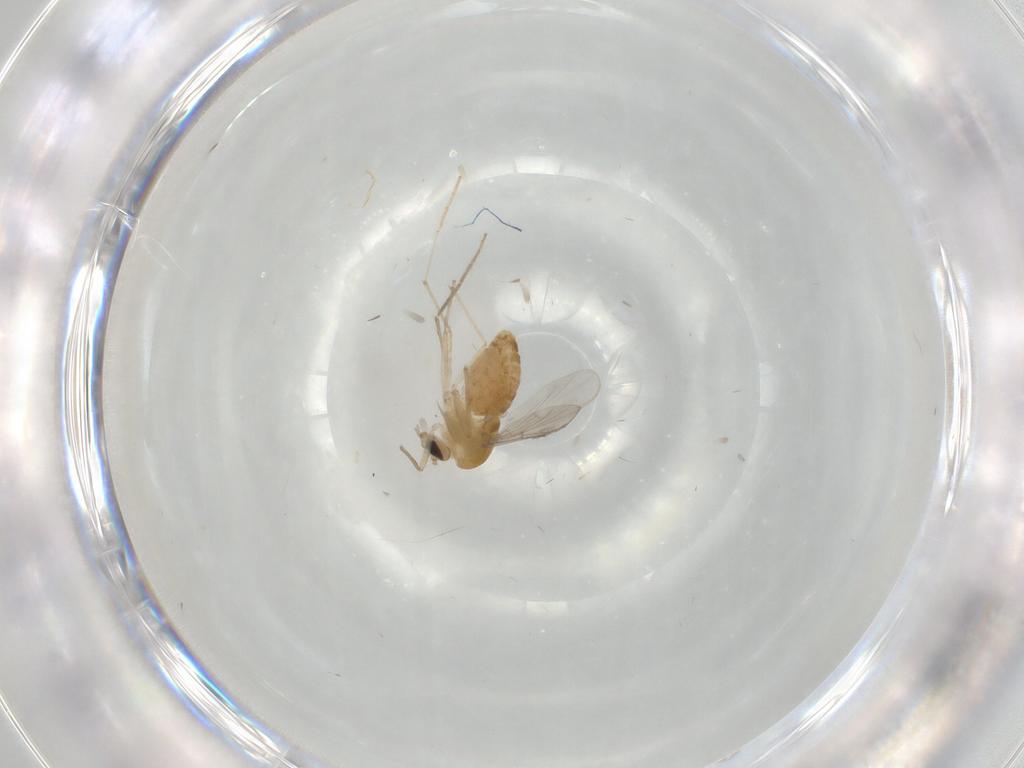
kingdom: Animalia
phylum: Arthropoda
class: Insecta
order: Diptera
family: Chironomidae
